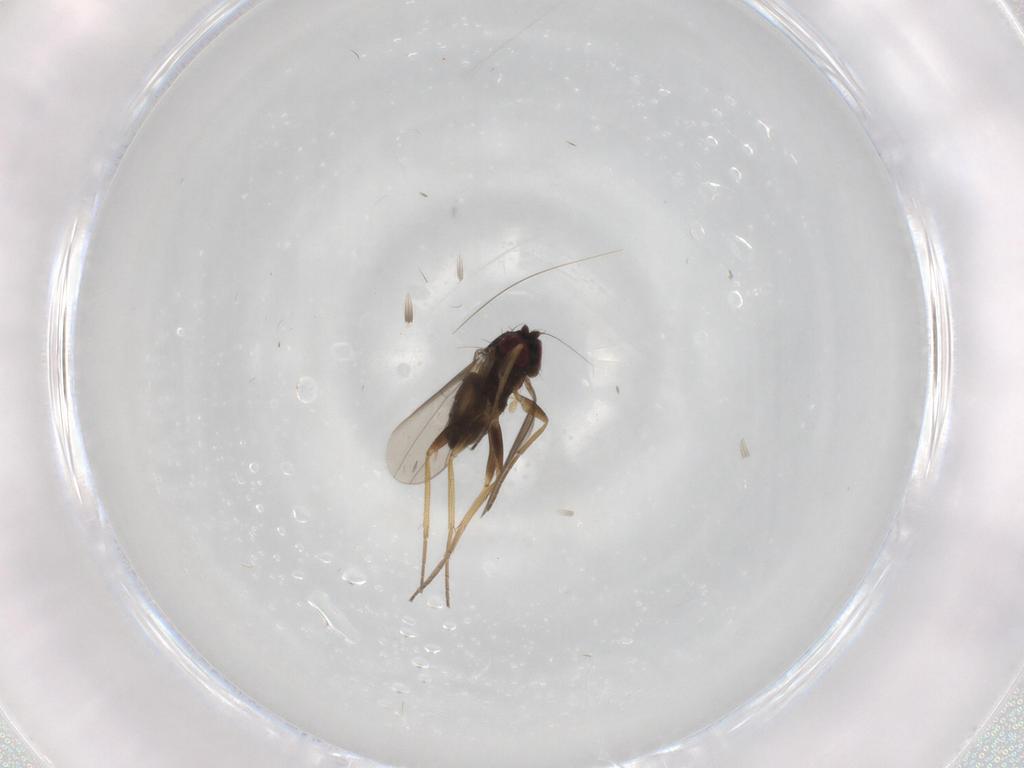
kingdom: Animalia
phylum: Arthropoda
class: Insecta
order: Diptera
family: Dolichopodidae
